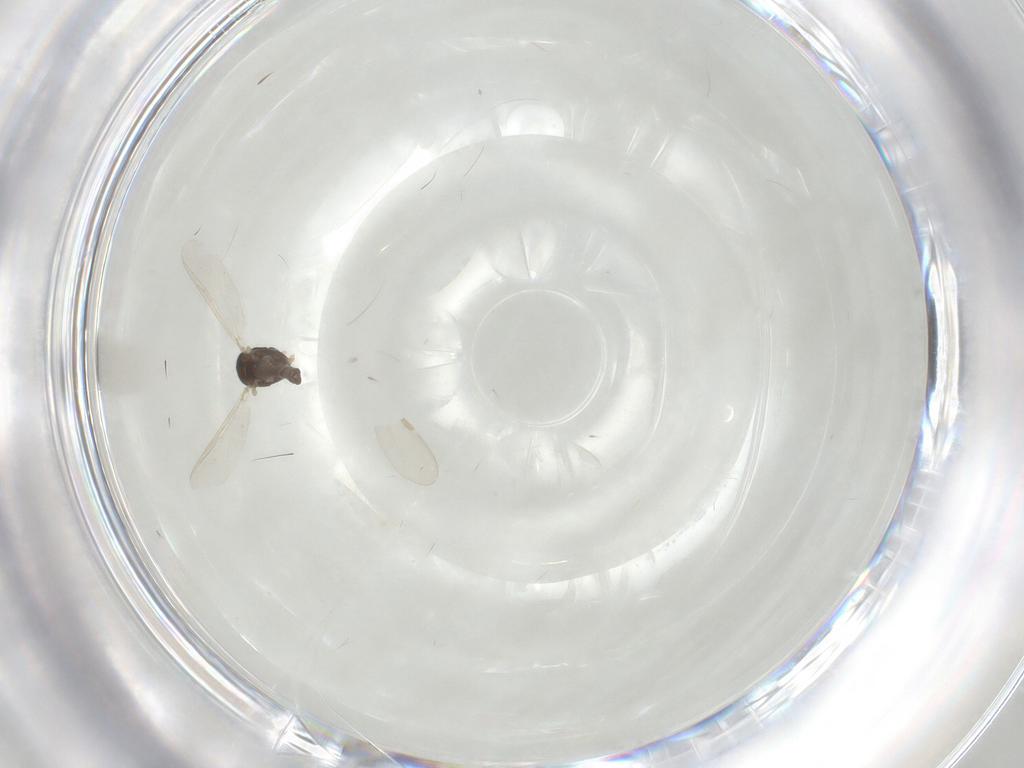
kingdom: Animalia
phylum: Arthropoda
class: Insecta
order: Diptera
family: Chironomidae
